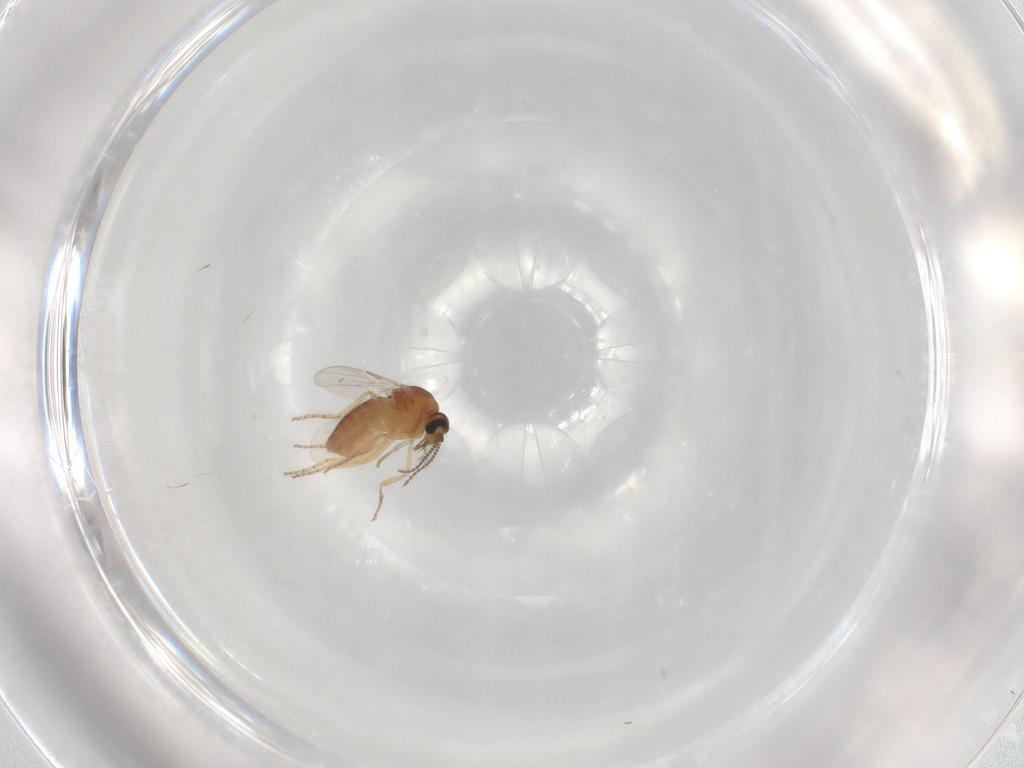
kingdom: Animalia
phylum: Arthropoda
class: Insecta
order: Diptera
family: Ceratopogonidae
